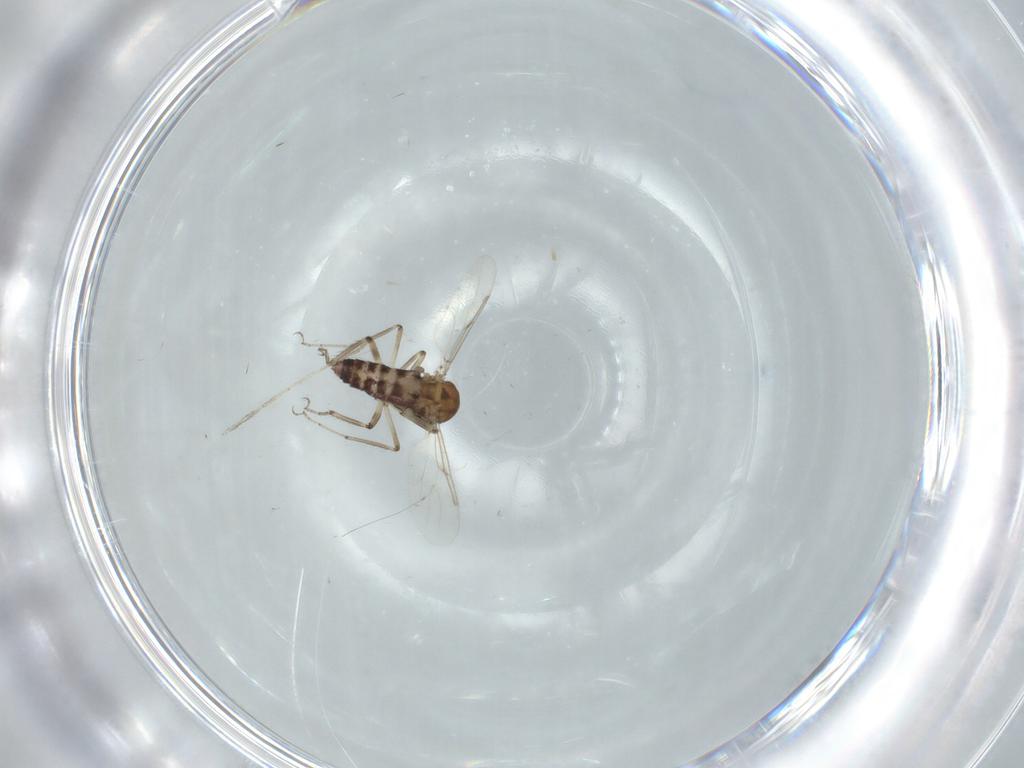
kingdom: Animalia
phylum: Arthropoda
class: Insecta
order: Diptera
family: Ceratopogonidae
